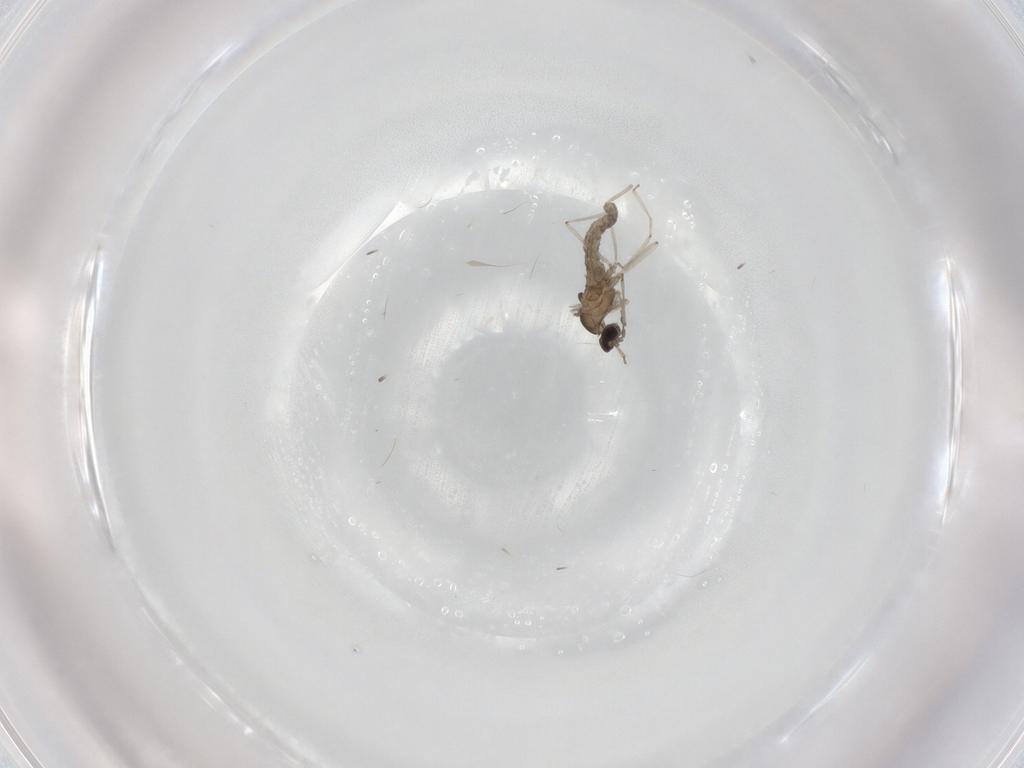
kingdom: Animalia
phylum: Arthropoda
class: Insecta
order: Diptera
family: Cecidomyiidae
